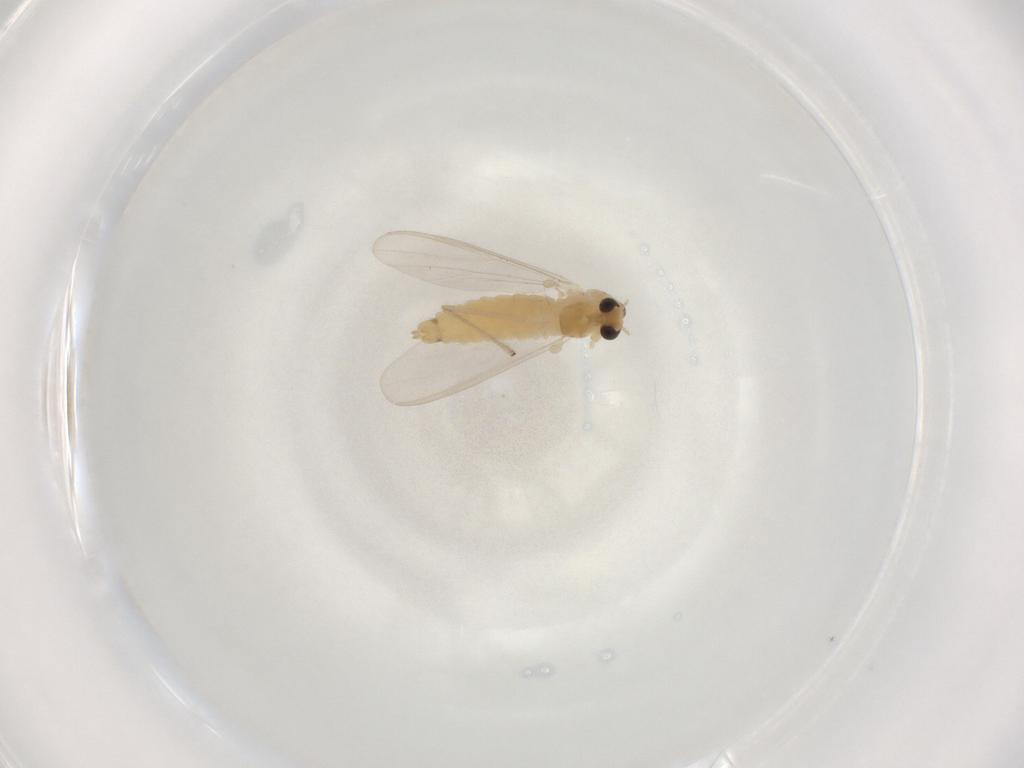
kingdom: Animalia
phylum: Arthropoda
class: Insecta
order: Diptera
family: Chironomidae
